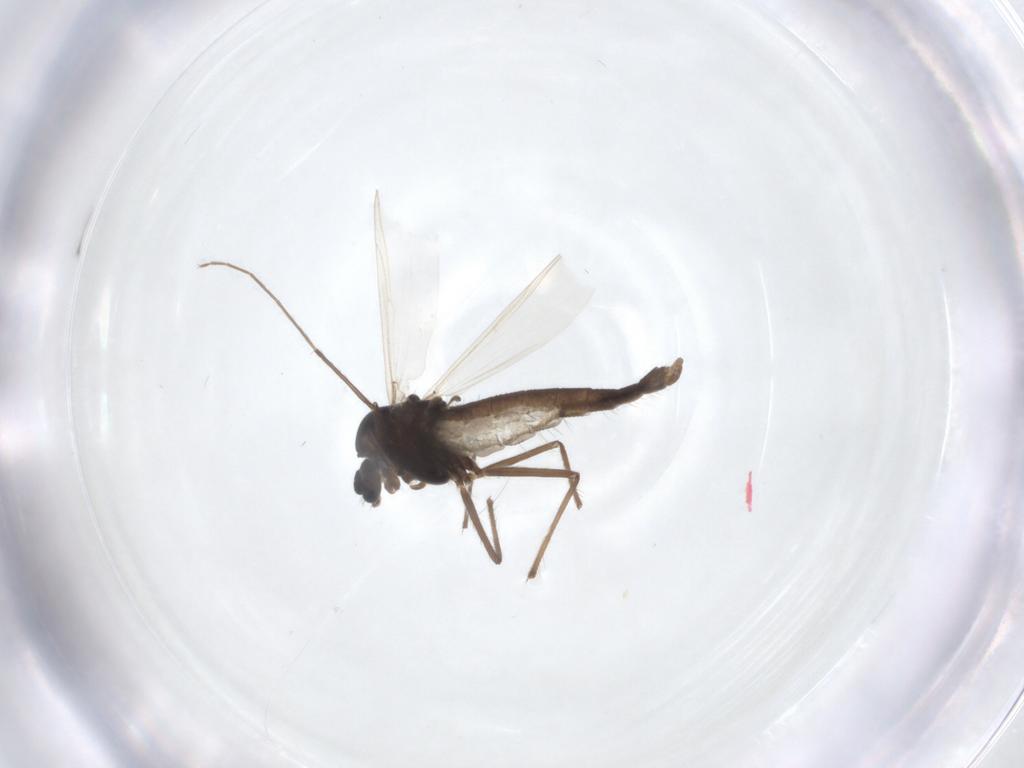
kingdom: Animalia
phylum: Arthropoda
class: Insecta
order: Diptera
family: Chironomidae
